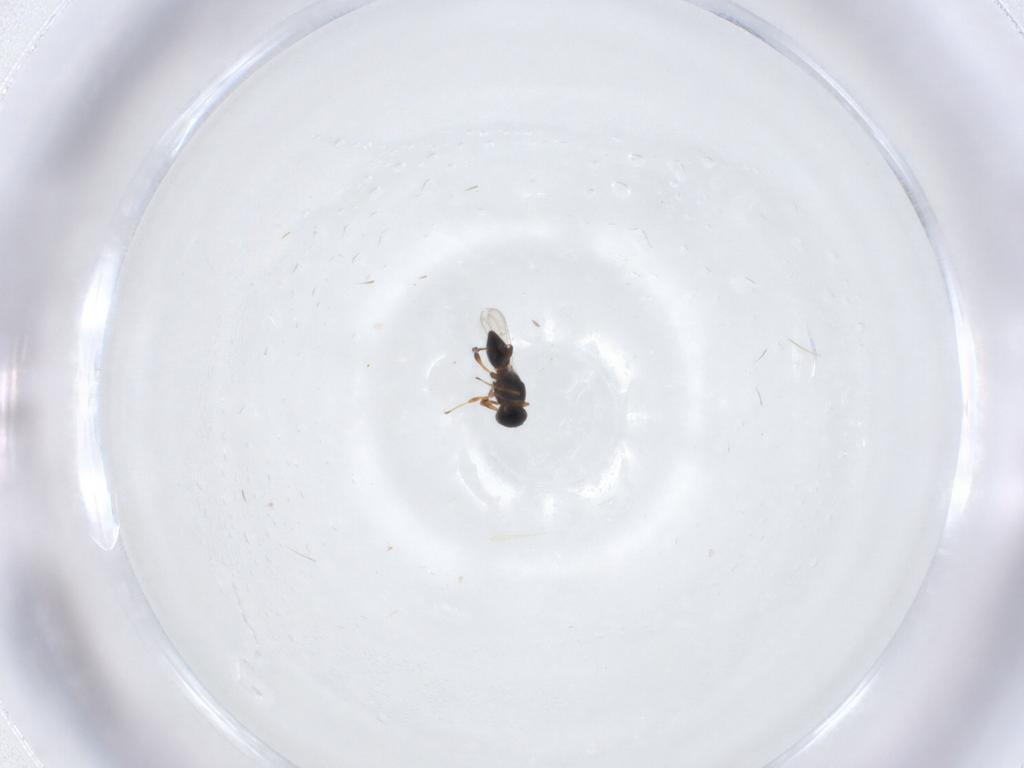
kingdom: Animalia
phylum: Arthropoda
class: Insecta
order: Hymenoptera
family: Platygastridae
